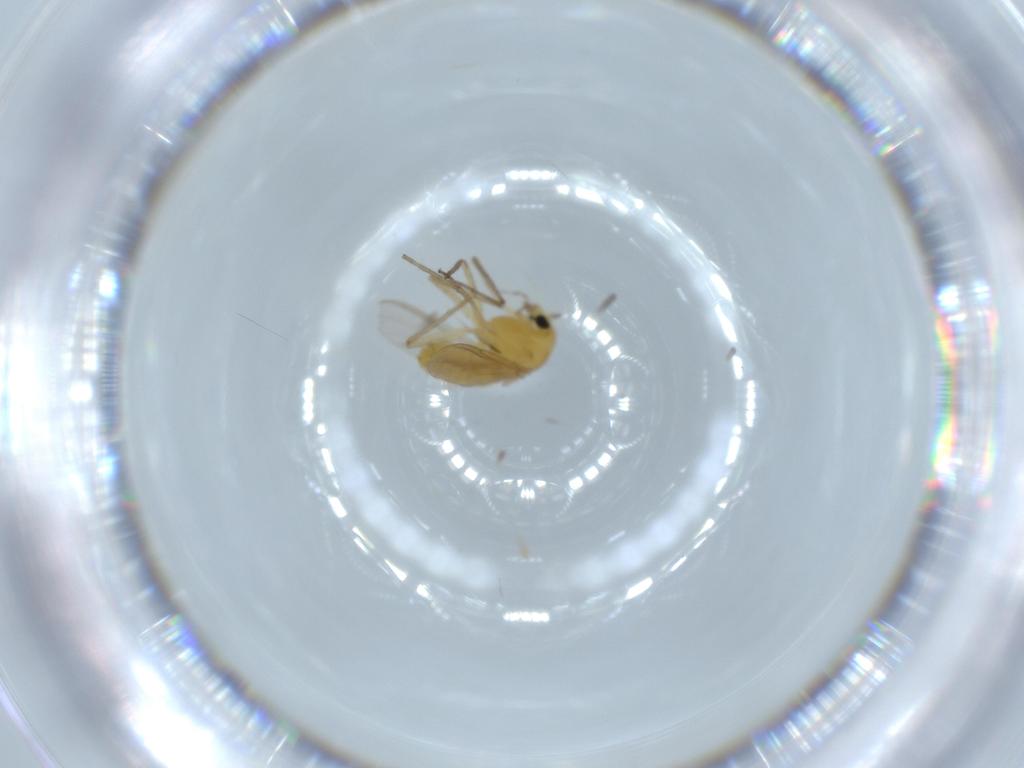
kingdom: Animalia
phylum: Arthropoda
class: Insecta
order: Diptera
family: Chironomidae
